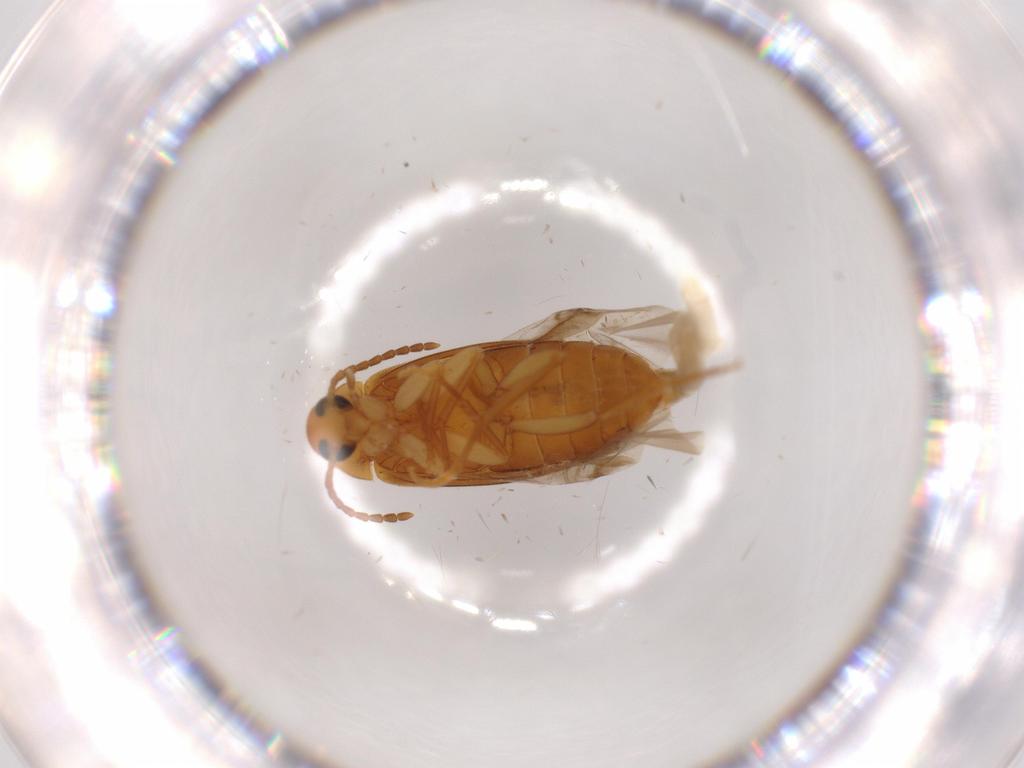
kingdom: Animalia
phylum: Arthropoda
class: Insecta
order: Coleoptera
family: Scraptiidae
